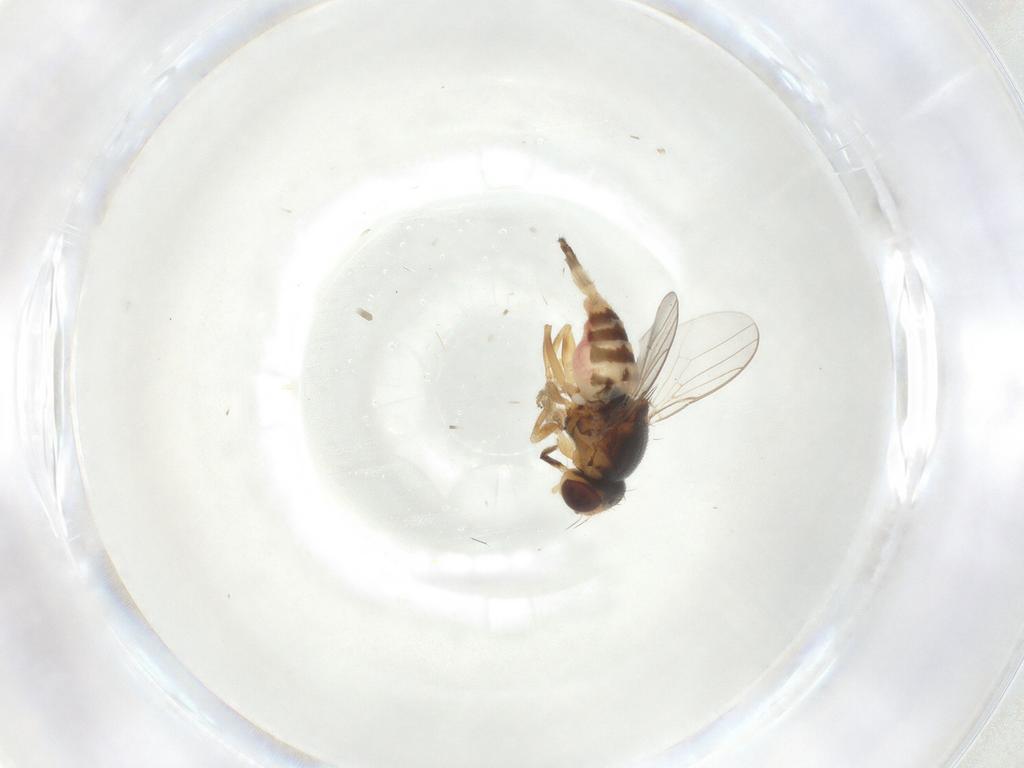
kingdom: Animalia
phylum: Arthropoda
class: Insecta
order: Diptera
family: Chloropidae
